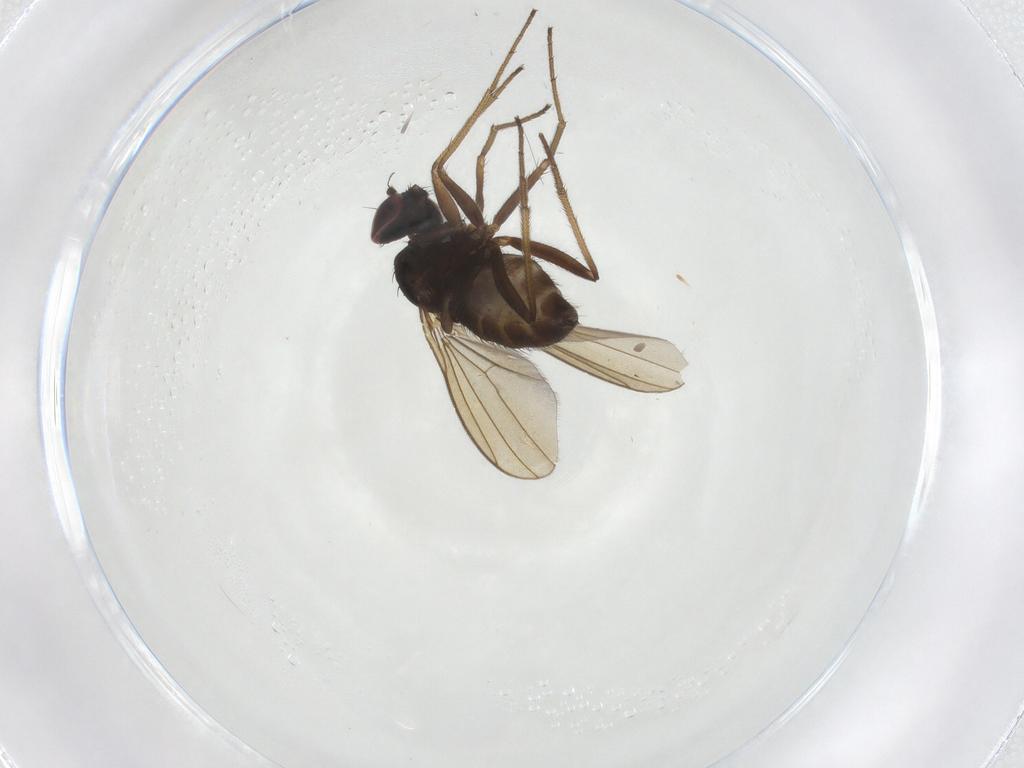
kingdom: Animalia
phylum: Arthropoda
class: Insecta
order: Diptera
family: Dolichopodidae
